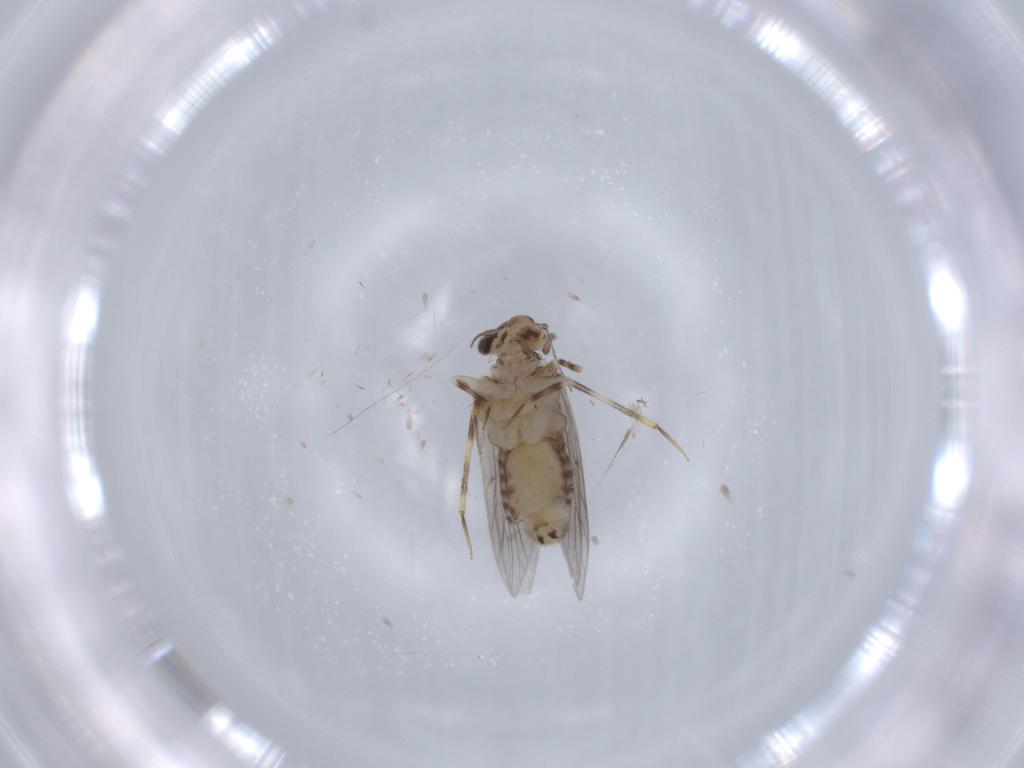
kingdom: Animalia
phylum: Arthropoda
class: Insecta
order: Psocodea
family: Lepidopsocidae
